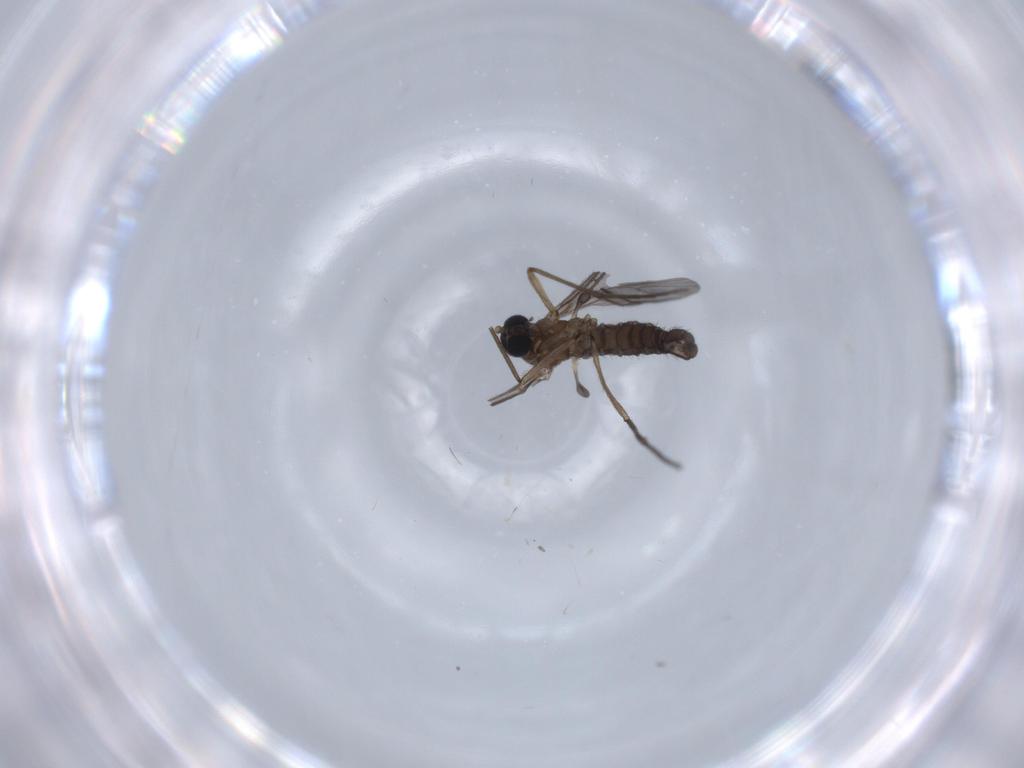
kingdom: Animalia
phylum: Arthropoda
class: Insecta
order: Diptera
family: Sciaridae
